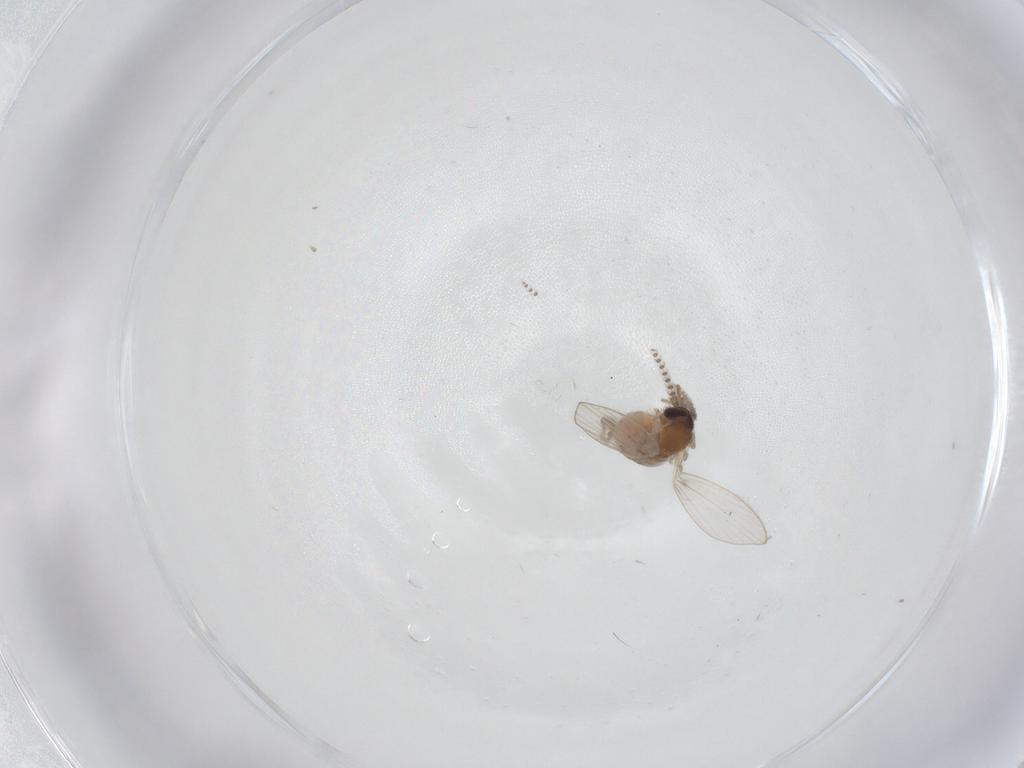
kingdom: Animalia
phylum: Arthropoda
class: Insecta
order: Diptera
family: Psychodidae
